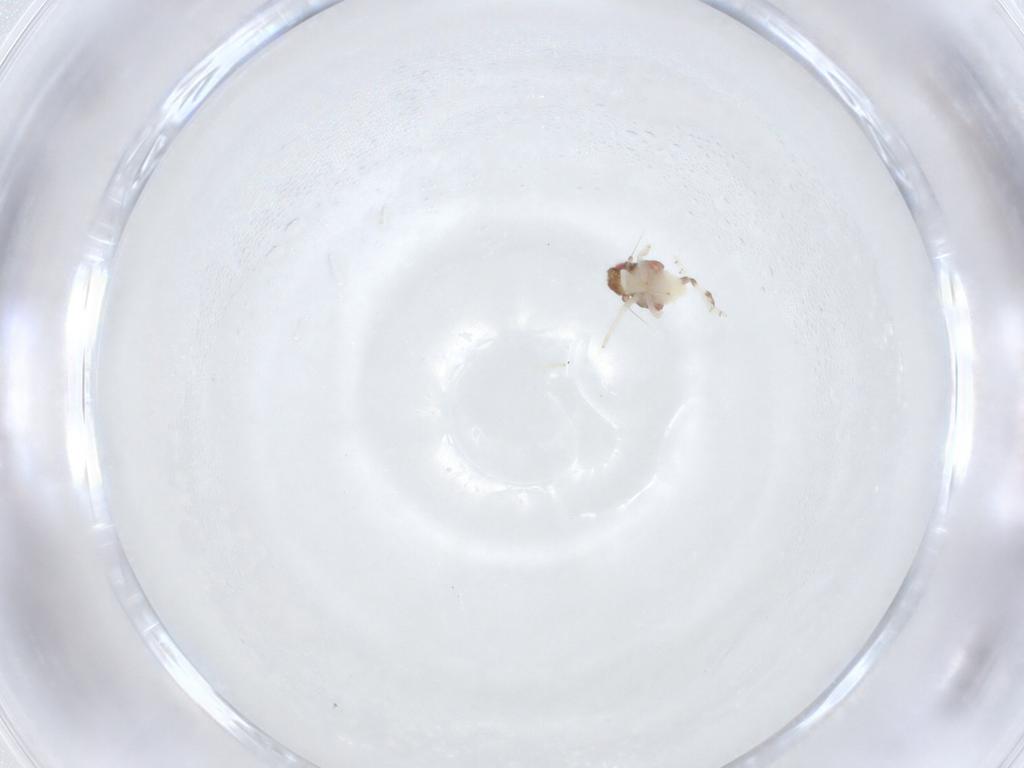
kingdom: Animalia
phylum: Arthropoda
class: Insecta
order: Hemiptera
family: Nogodinidae
